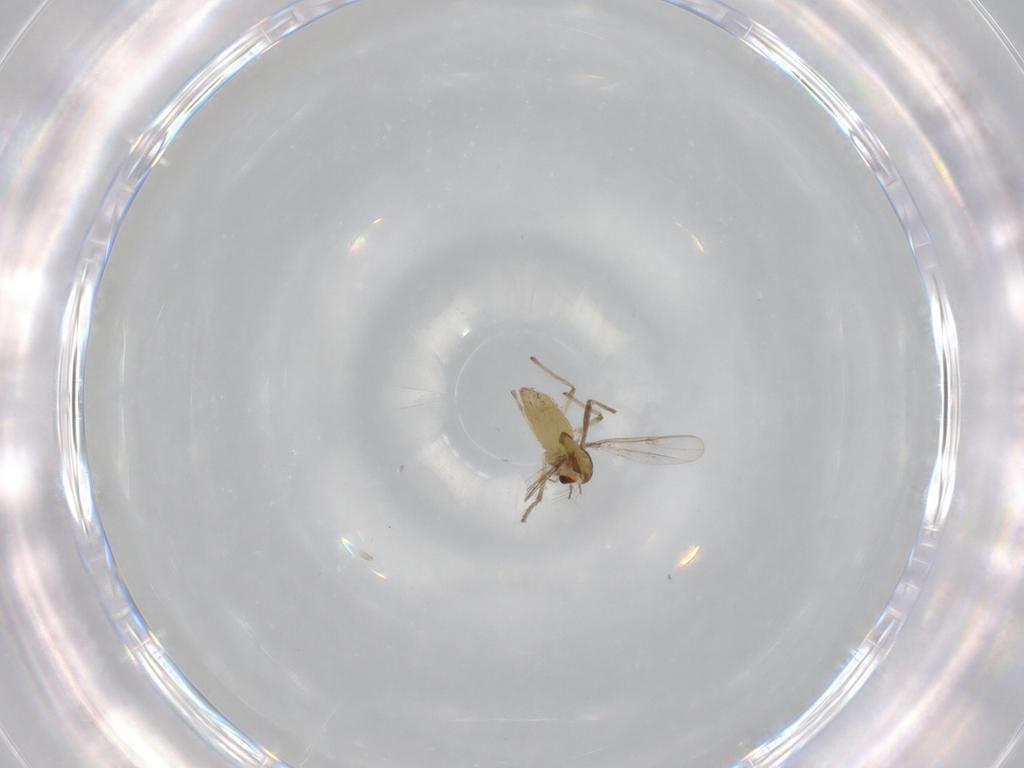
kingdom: Animalia
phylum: Arthropoda
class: Insecta
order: Diptera
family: Chironomidae
